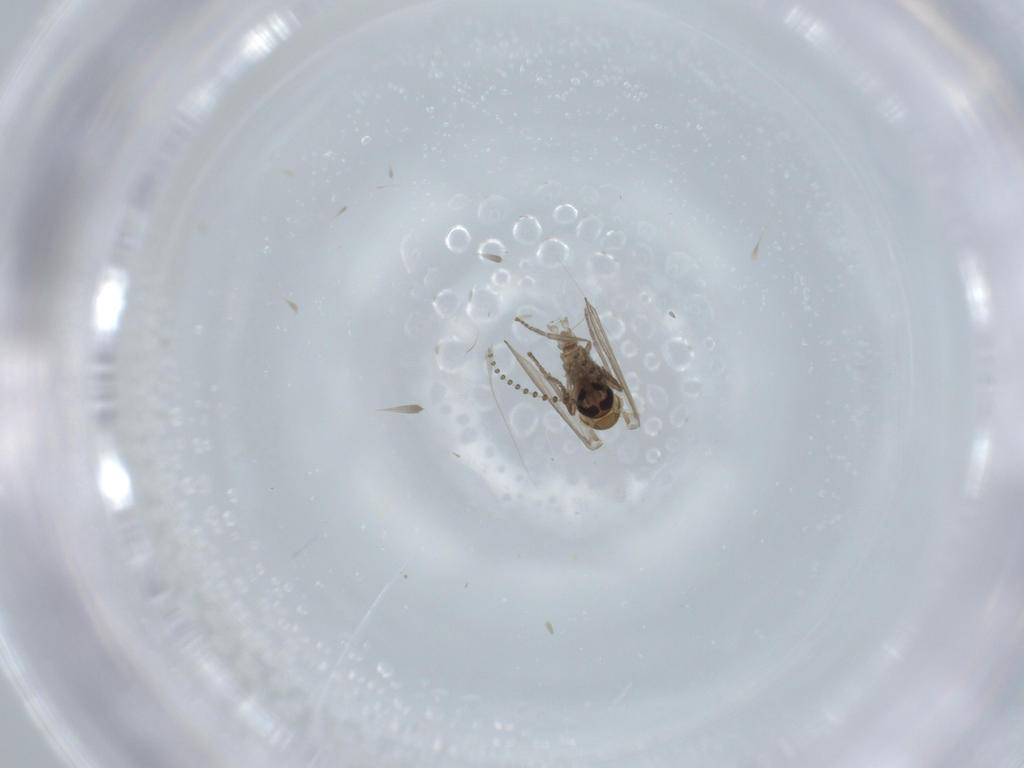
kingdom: Animalia
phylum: Arthropoda
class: Insecta
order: Diptera
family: Psychodidae
